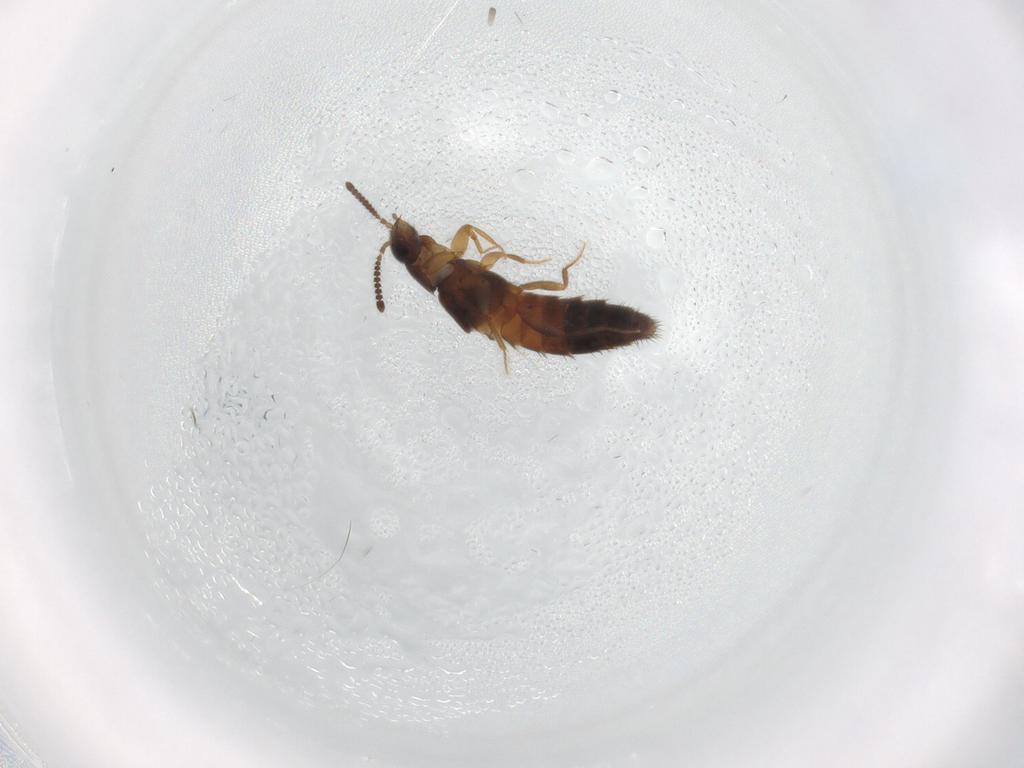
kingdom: Animalia
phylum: Arthropoda
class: Insecta
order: Coleoptera
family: Staphylinidae
